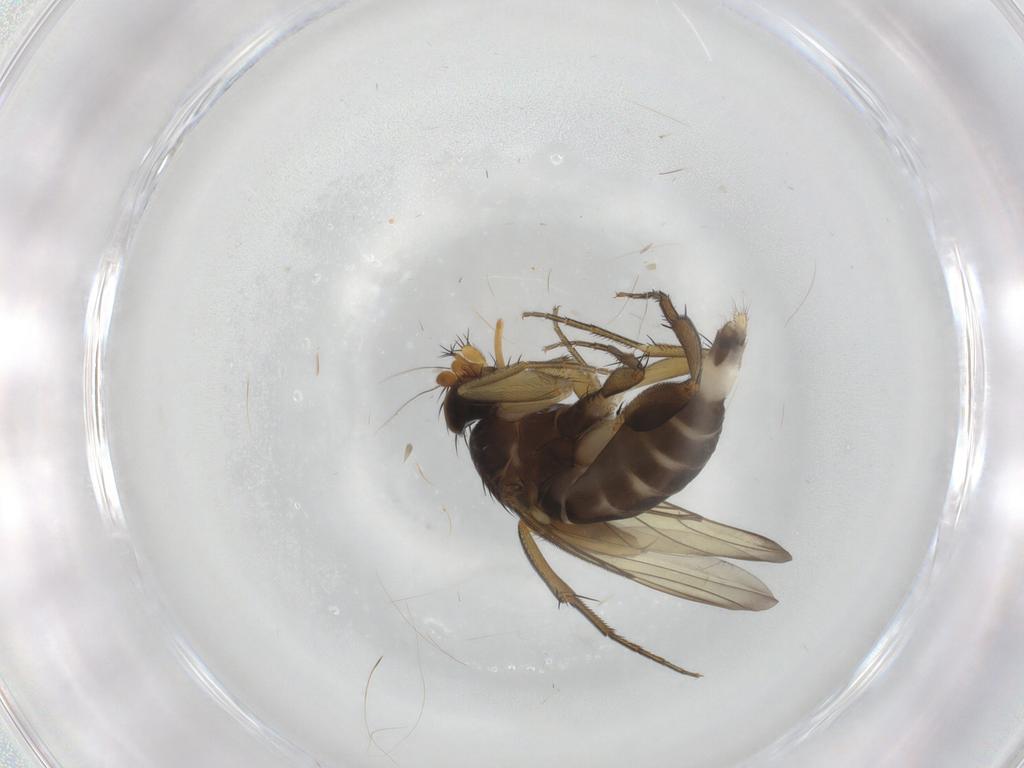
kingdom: Animalia
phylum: Arthropoda
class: Insecta
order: Diptera
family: Phoridae
